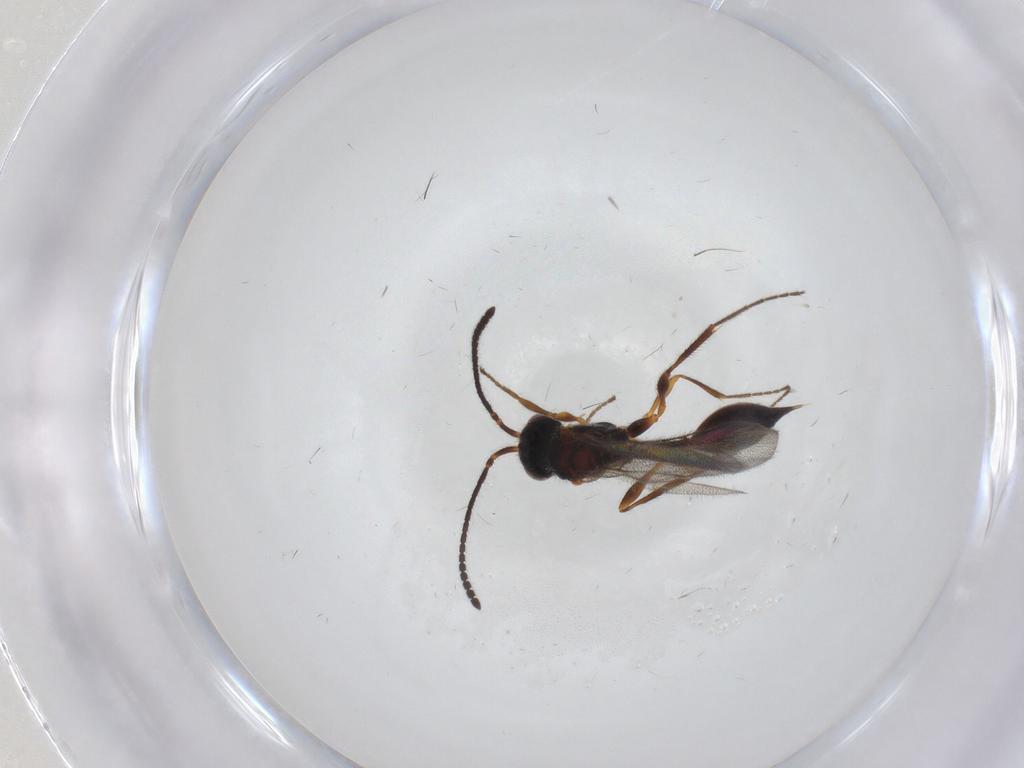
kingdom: Animalia
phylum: Arthropoda
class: Insecta
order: Hymenoptera
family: Diapriidae
